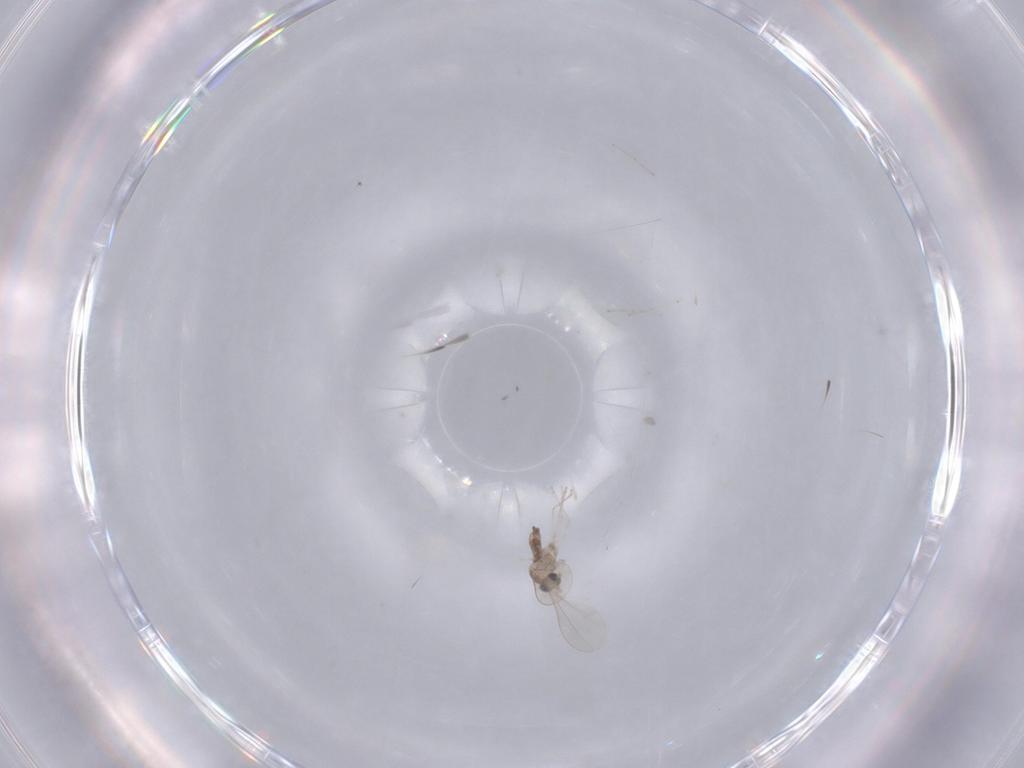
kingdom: Animalia
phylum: Arthropoda
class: Insecta
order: Diptera
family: Cecidomyiidae
